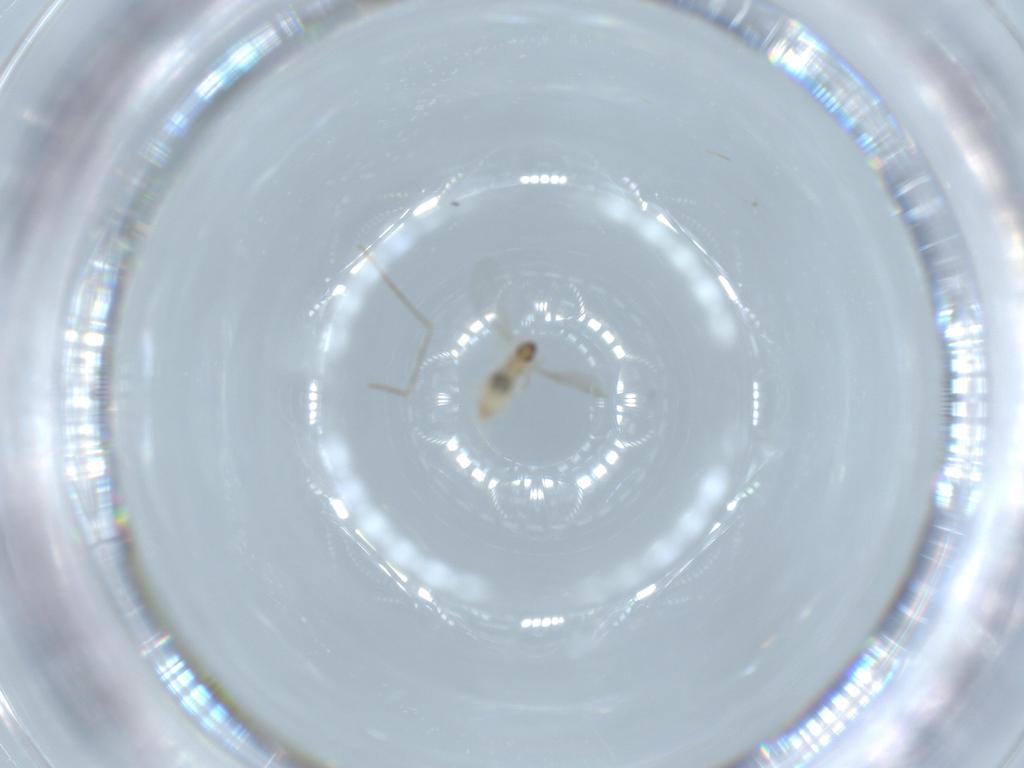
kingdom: Animalia
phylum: Arthropoda
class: Insecta
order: Diptera
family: Cecidomyiidae
